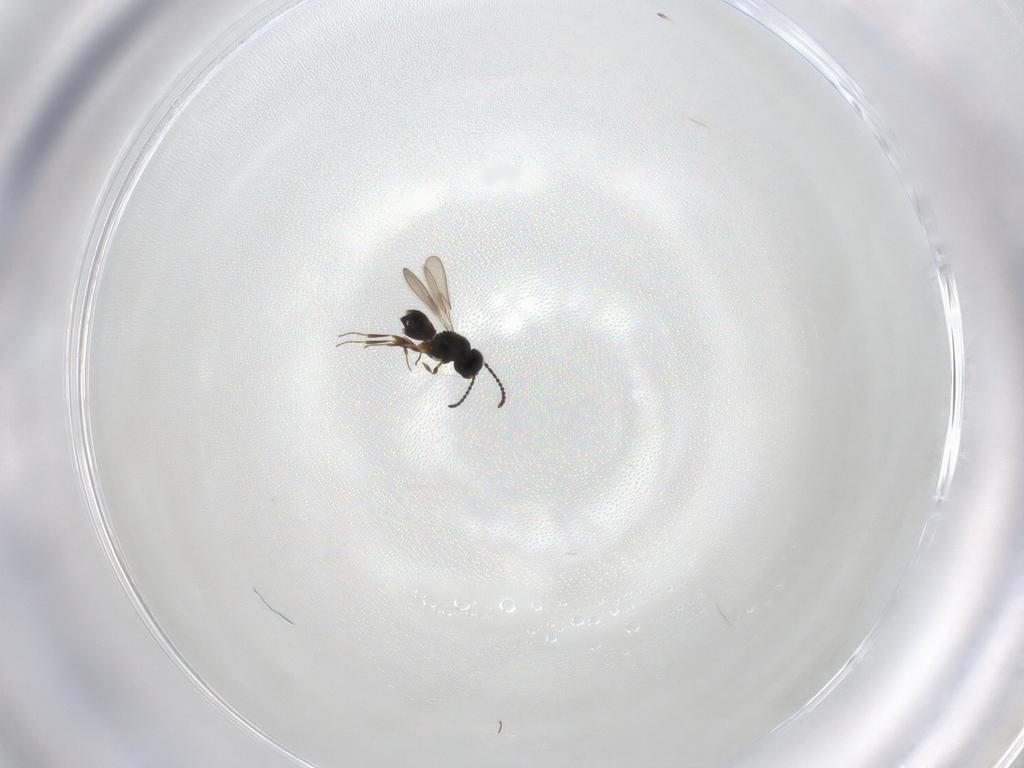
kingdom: Animalia
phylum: Arthropoda
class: Insecta
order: Hymenoptera
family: Scelionidae
